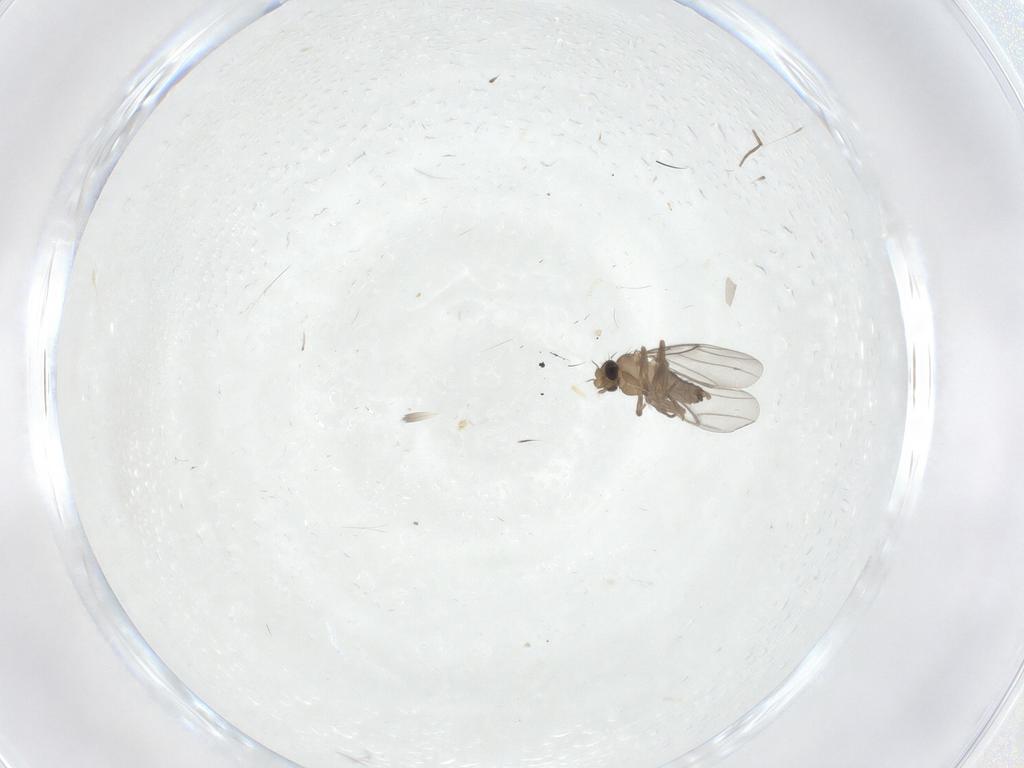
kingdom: Animalia
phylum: Arthropoda
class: Insecta
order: Diptera
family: Cecidomyiidae
